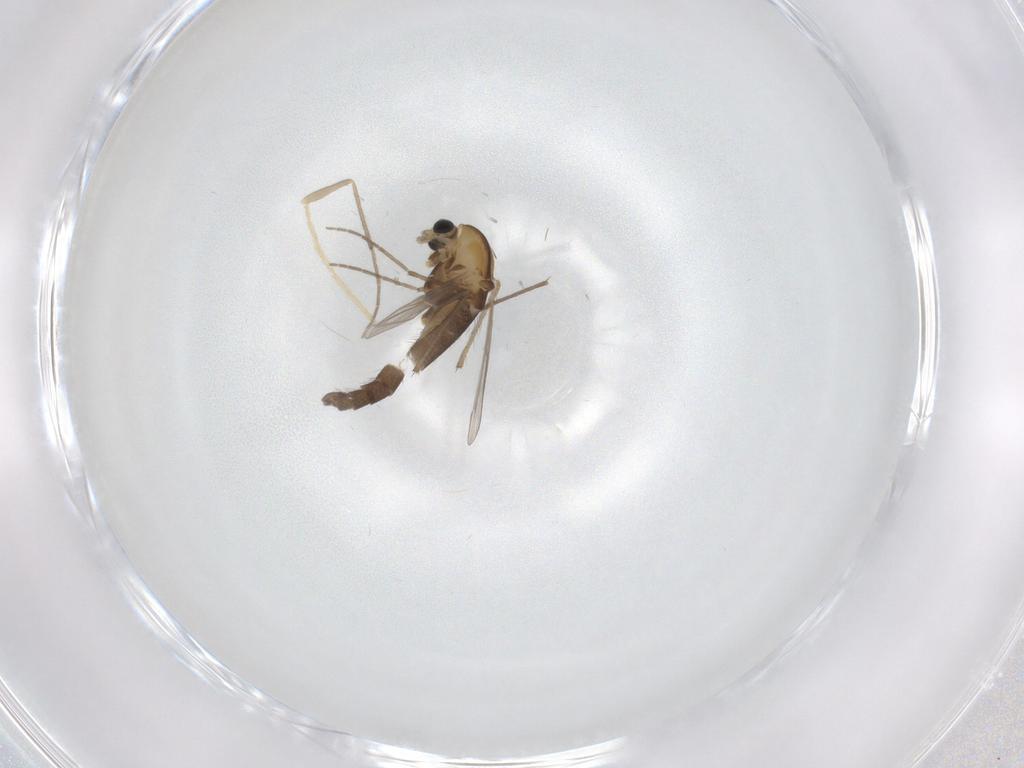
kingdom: Animalia
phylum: Arthropoda
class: Insecta
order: Diptera
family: Chironomidae
